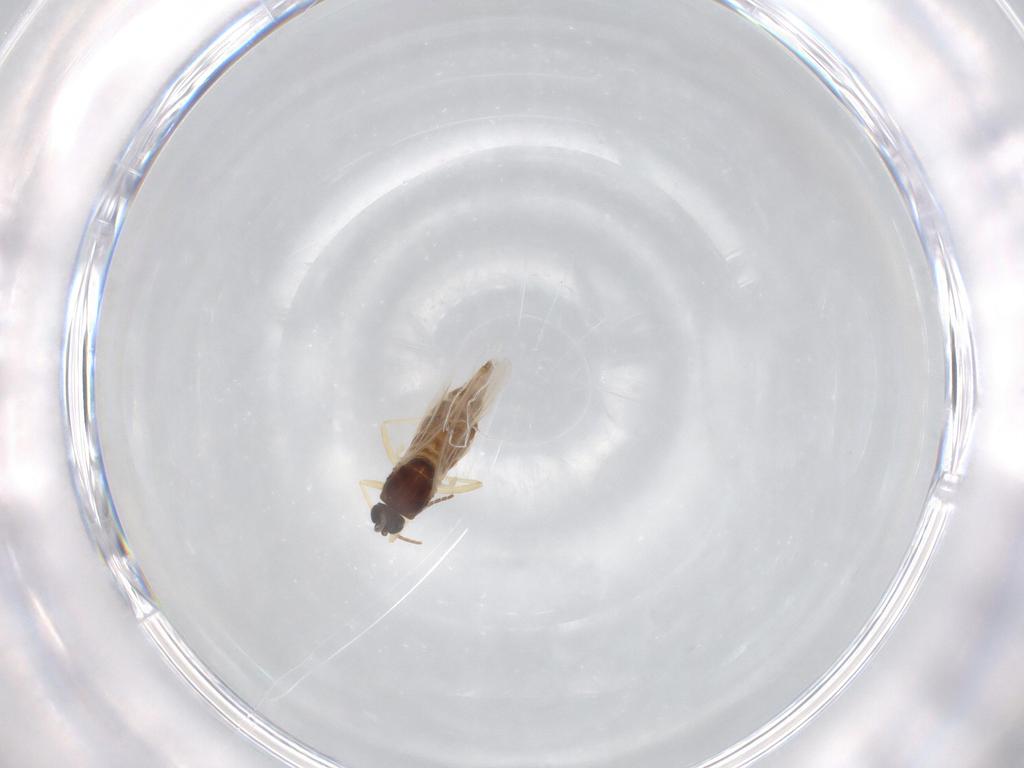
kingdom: Animalia
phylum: Arthropoda
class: Insecta
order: Diptera
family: Sciaridae
